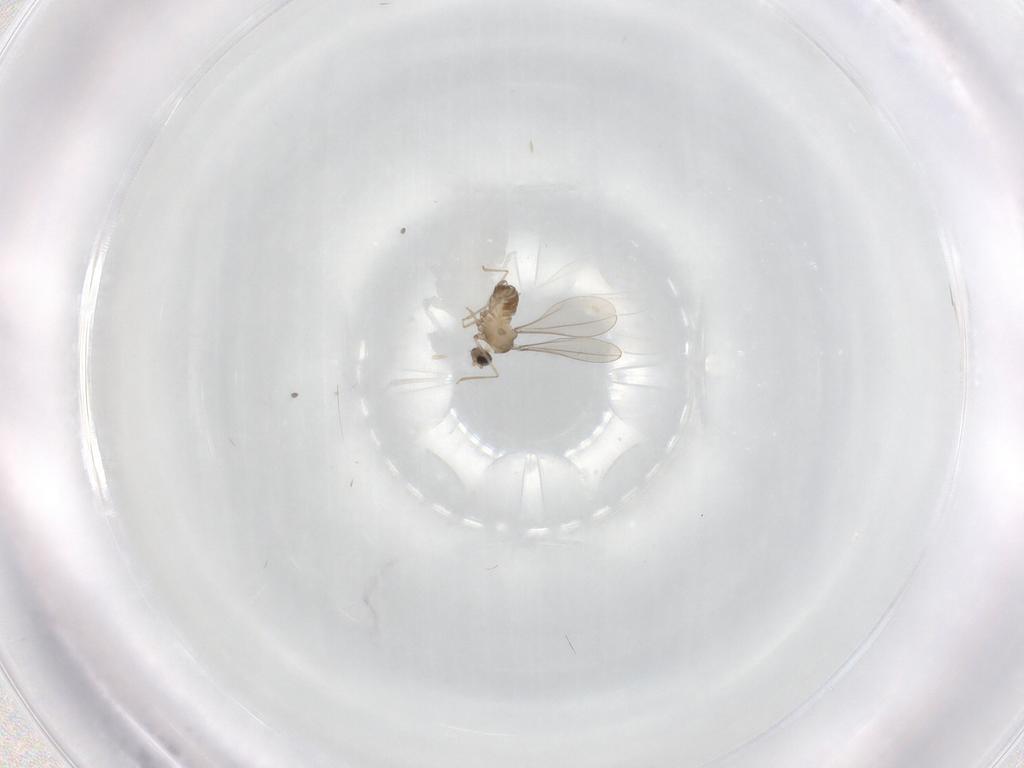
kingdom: Animalia
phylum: Arthropoda
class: Insecta
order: Diptera
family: Phoridae
